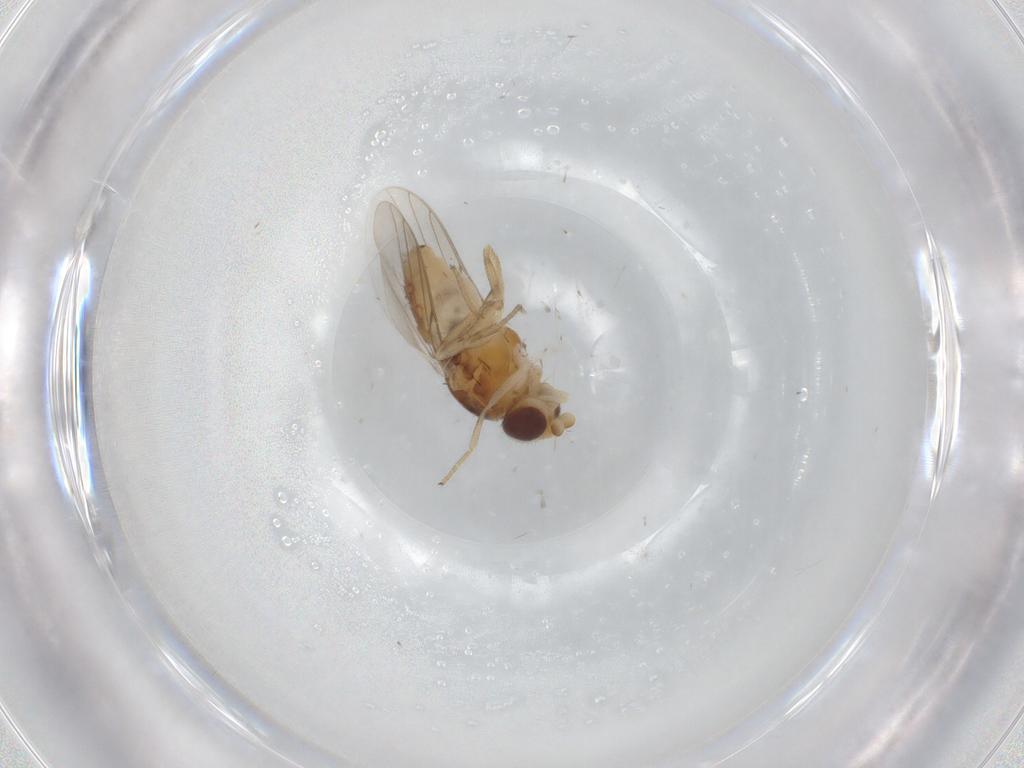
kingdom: Animalia
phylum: Arthropoda
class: Insecta
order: Diptera
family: Chloropidae
